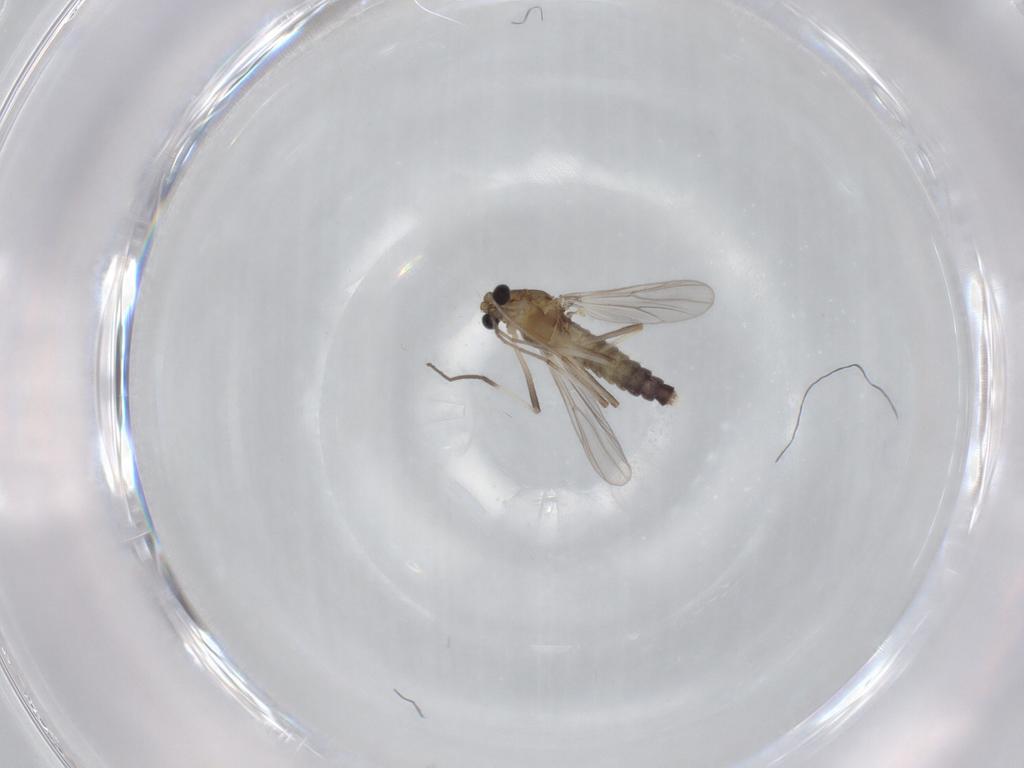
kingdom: Animalia
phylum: Arthropoda
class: Insecta
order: Diptera
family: Chironomidae
